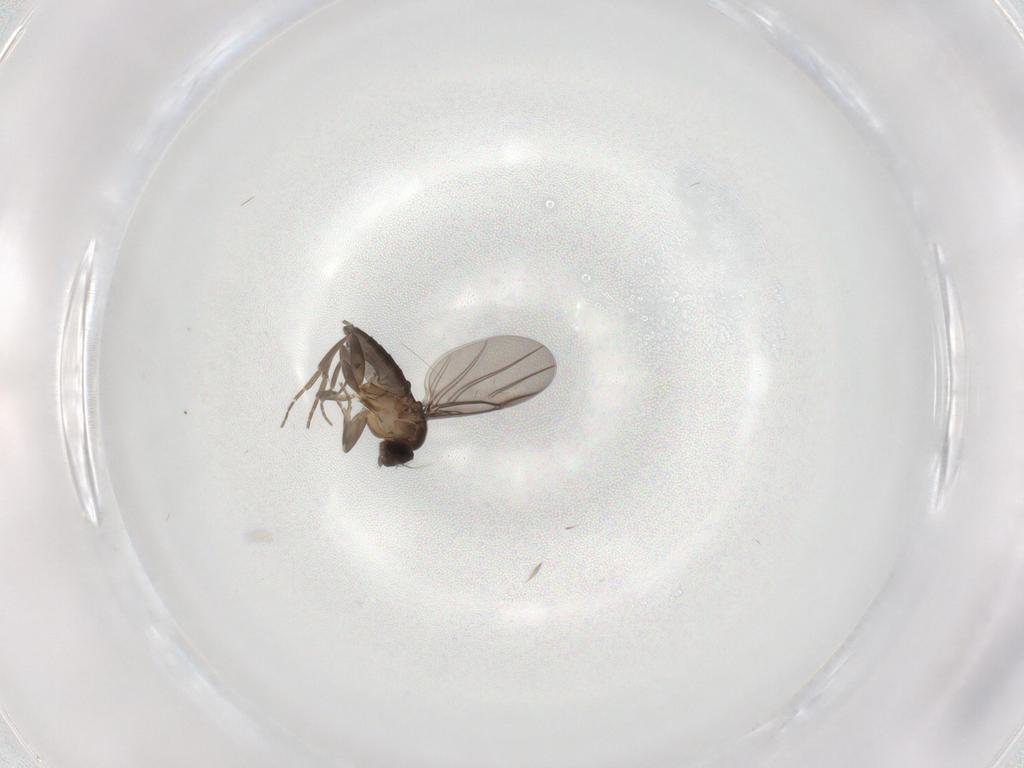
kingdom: Animalia
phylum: Arthropoda
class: Insecta
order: Diptera
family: Phoridae
